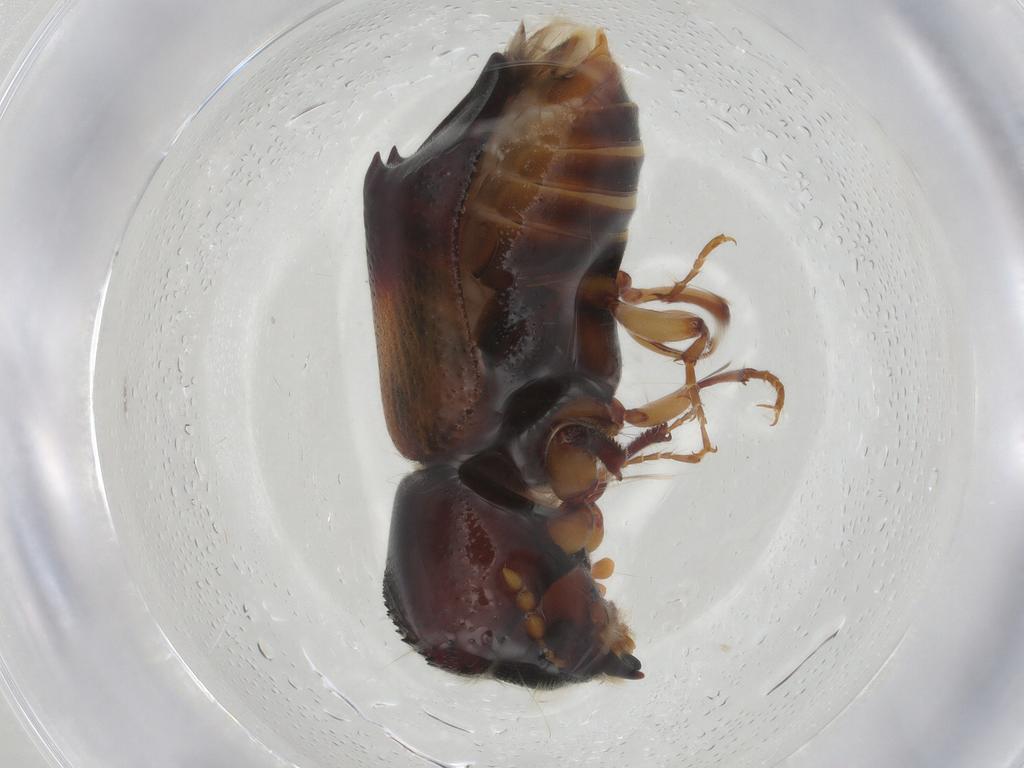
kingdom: Animalia
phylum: Arthropoda
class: Insecta
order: Coleoptera
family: Bostrichidae
